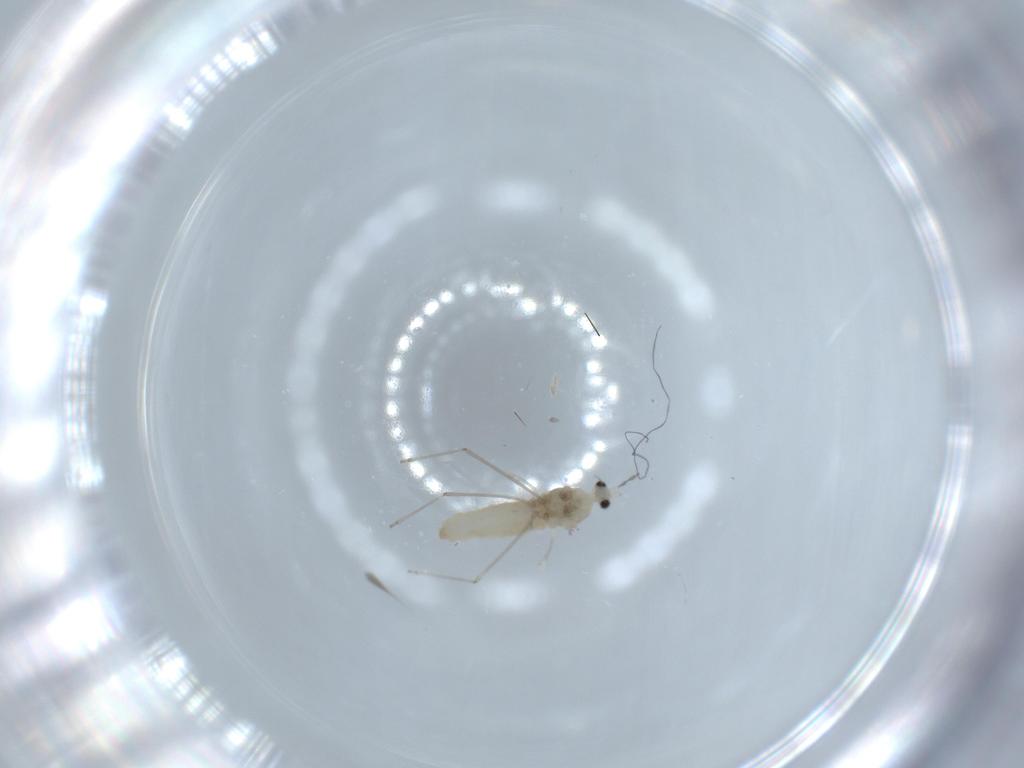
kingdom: Animalia
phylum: Arthropoda
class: Insecta
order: Diptera
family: Cecidomyiidae
